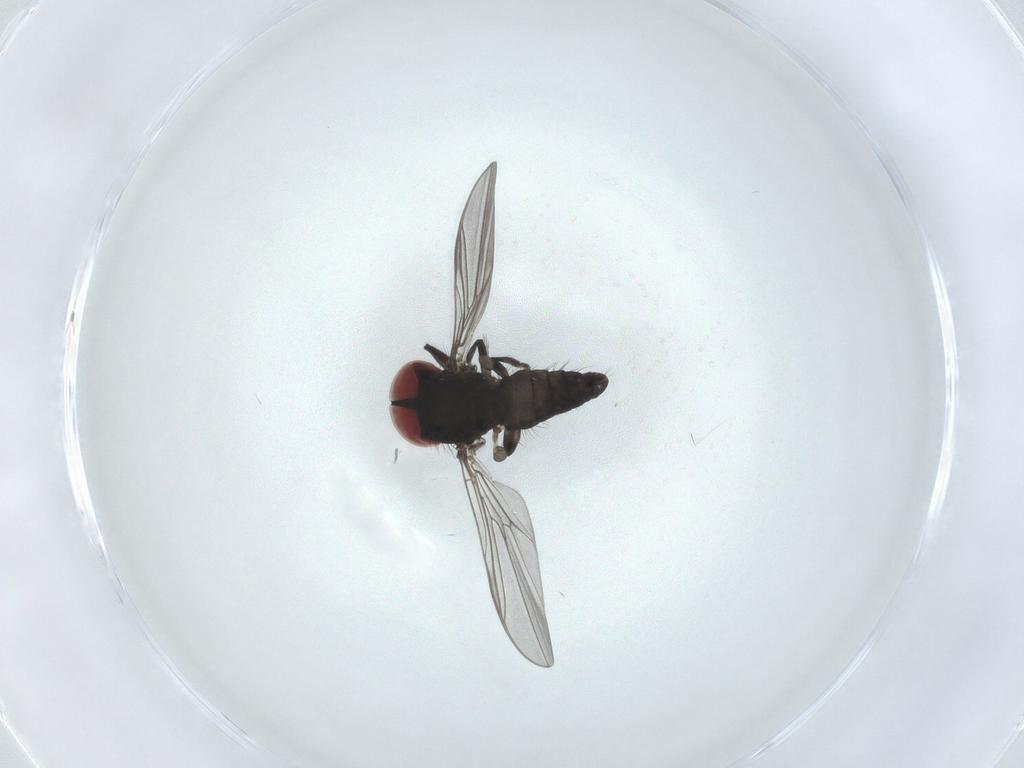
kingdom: Animalia
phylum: Arthropoda
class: Insecta
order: Diptera
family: Pipunculidae
